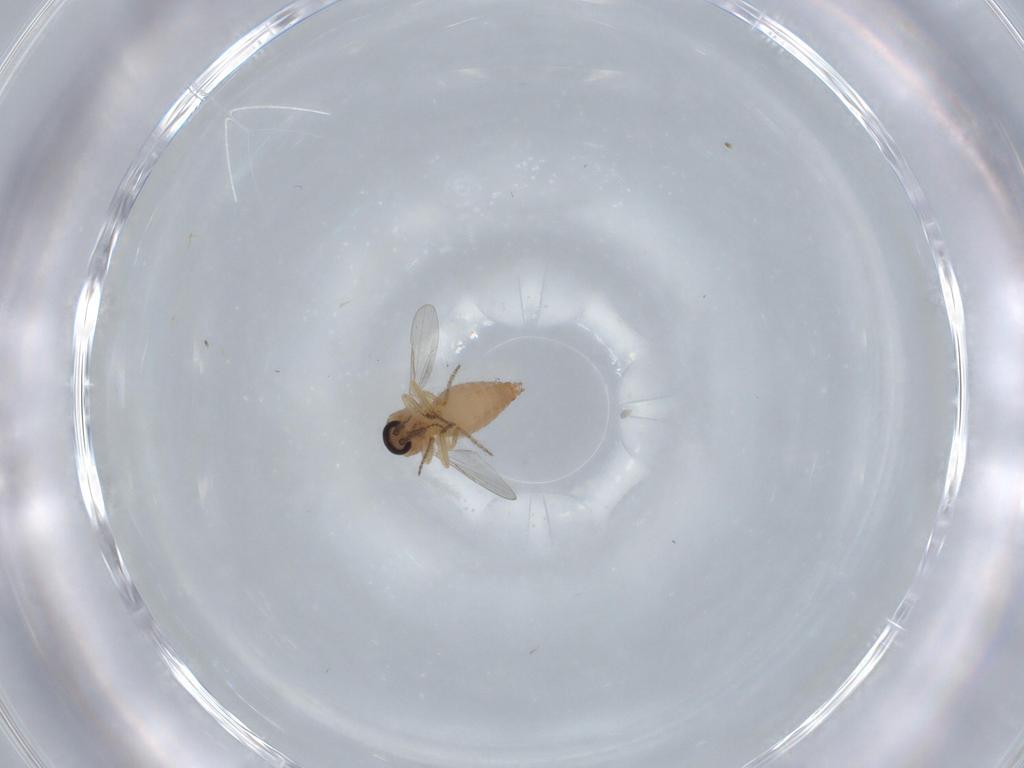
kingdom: Animalia
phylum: Arthropoda
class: Insecta
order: Diptera
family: Ceratopogonidae
